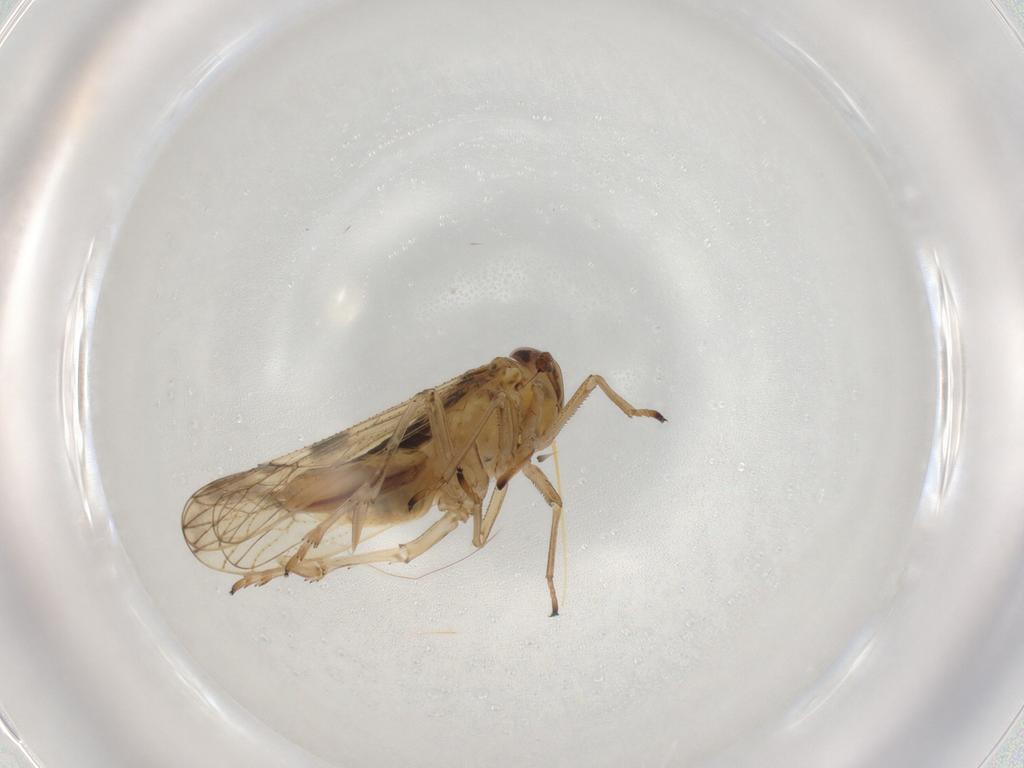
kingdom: Animalia
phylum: Arthropoda
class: Insecta
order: Hemiptera
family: Delphacidae
